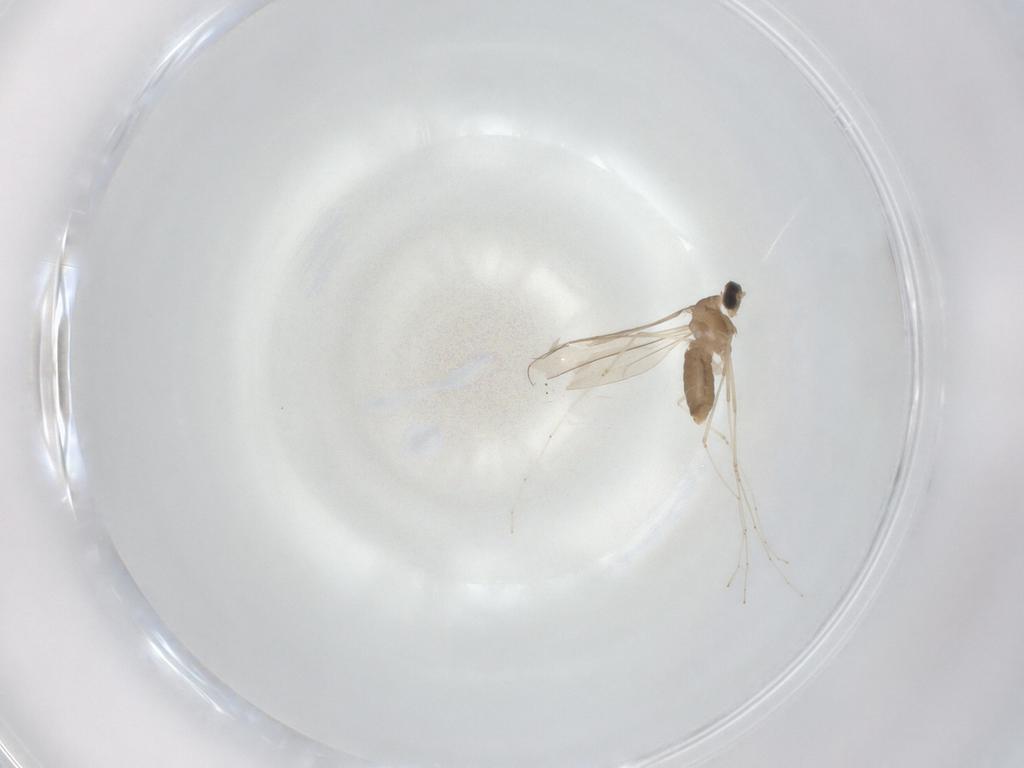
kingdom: Animalia
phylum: Arthropoda
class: Insecta
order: Diptera
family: Cecidomyiidae
